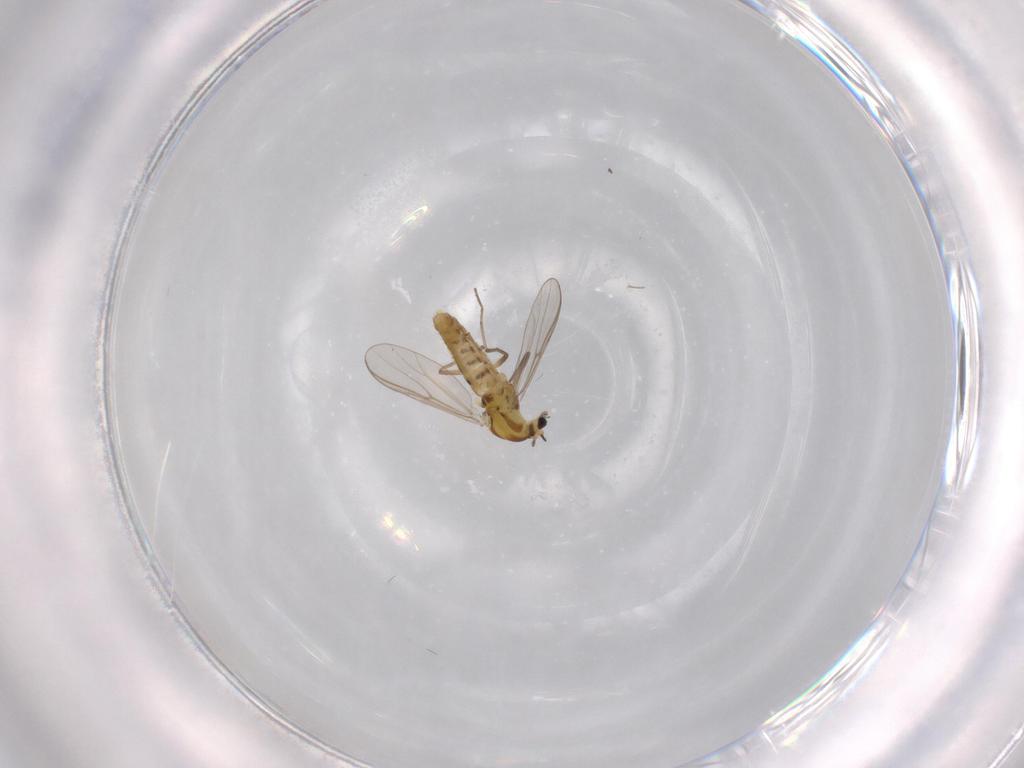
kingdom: Animalia
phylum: Arthropoda
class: Insecta
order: Diptera
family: Chironomidae
